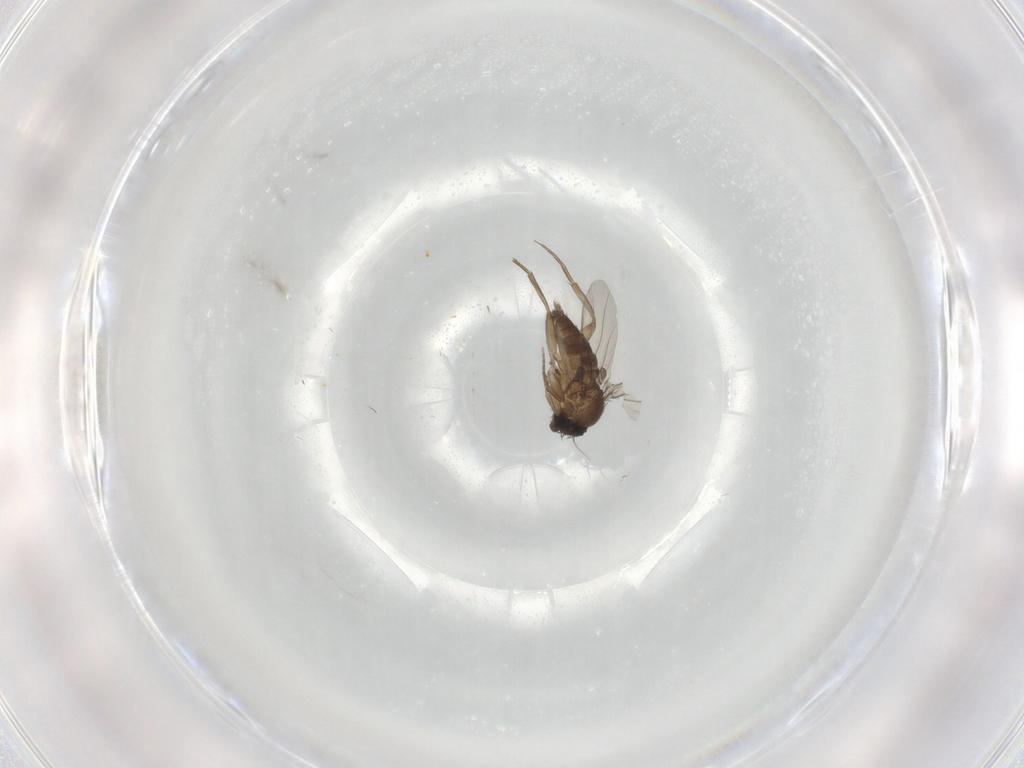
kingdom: Animalia
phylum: Arthropoda
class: Insecta
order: Diptera
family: Phoridae
